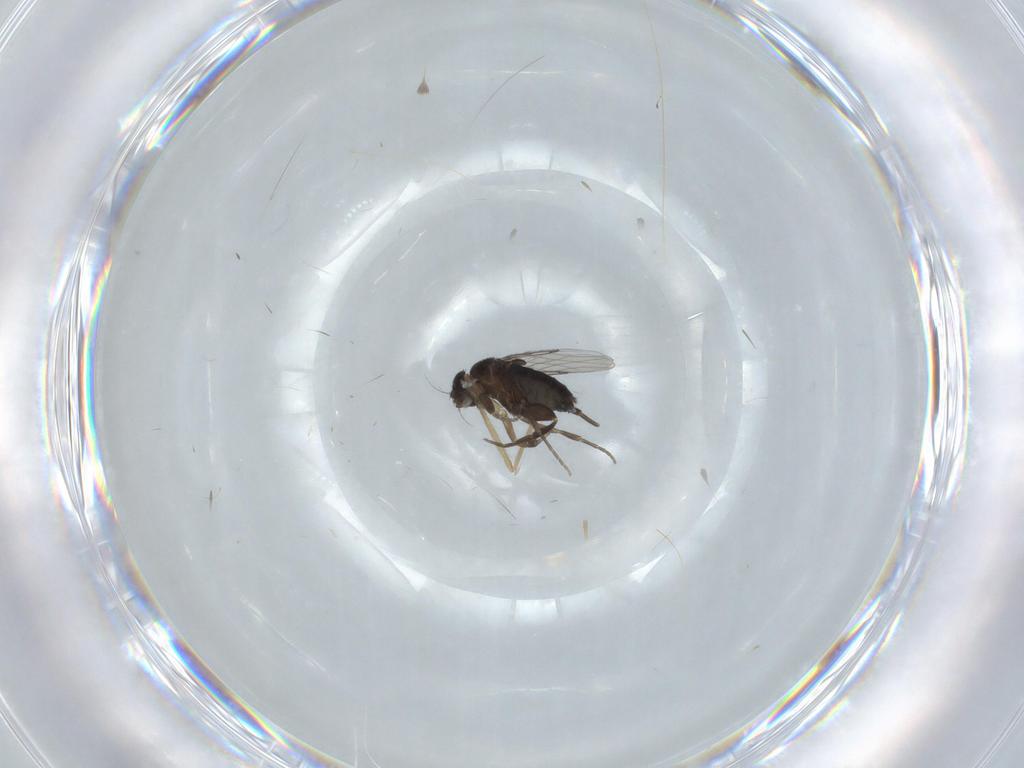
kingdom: Animalia
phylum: Arthropoda
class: Insecta
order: Diptera
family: Phoridae
